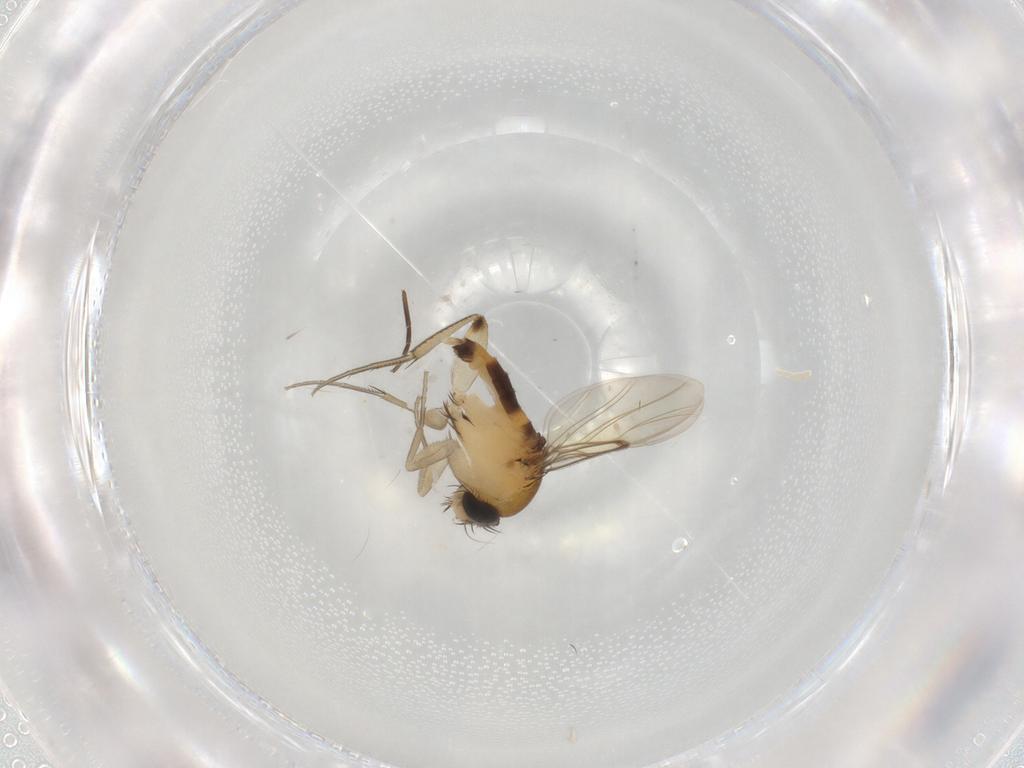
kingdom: Animalia
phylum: Arthropoda
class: Insecta
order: Diptera
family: Phoridae
